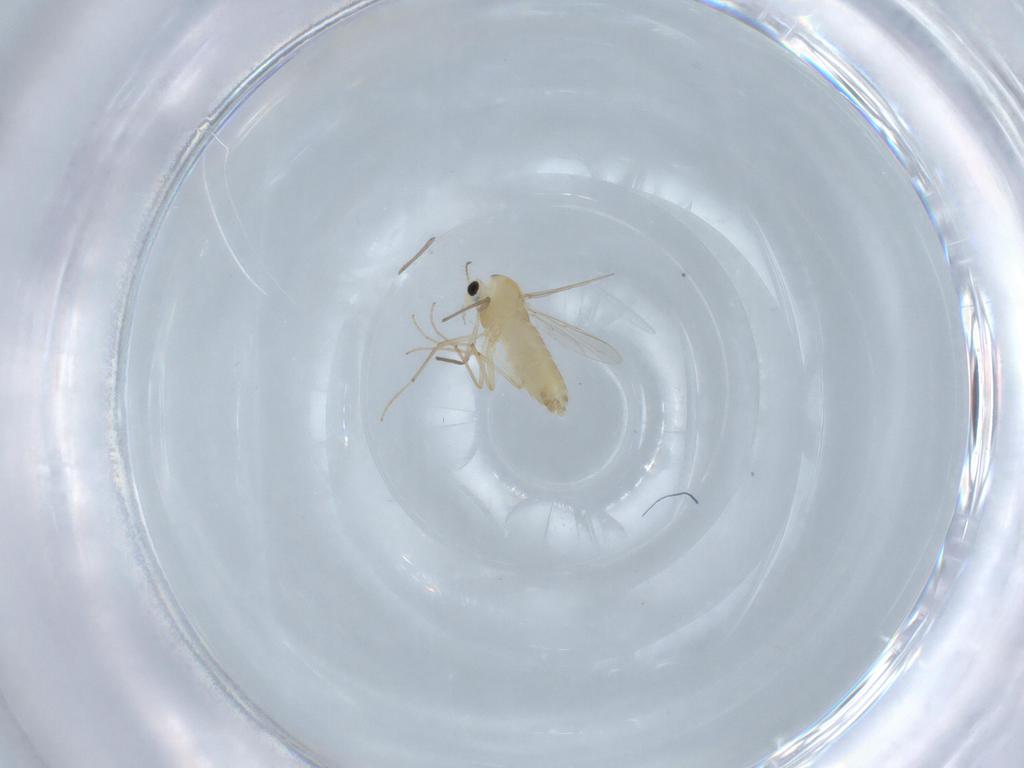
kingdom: Animalia
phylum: Arthropoda
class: Insecta
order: Diptera
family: Chironomidae
